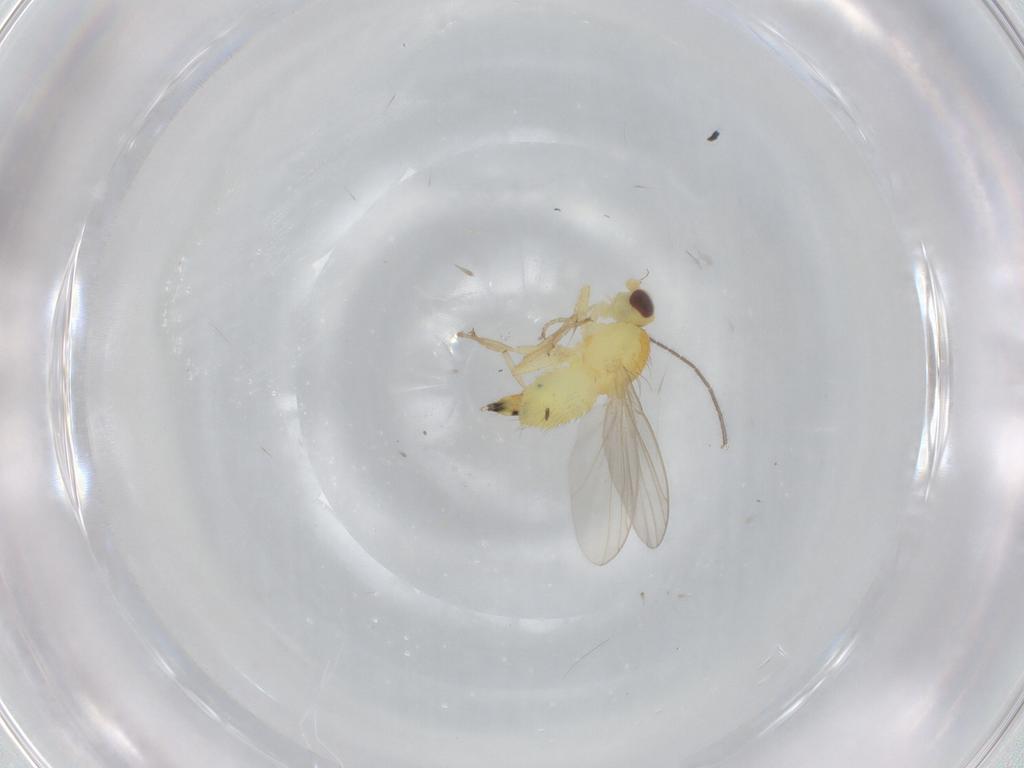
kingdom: Animalia
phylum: Arthropoda
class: Insecta
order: Diptera
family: Agromyzidae
